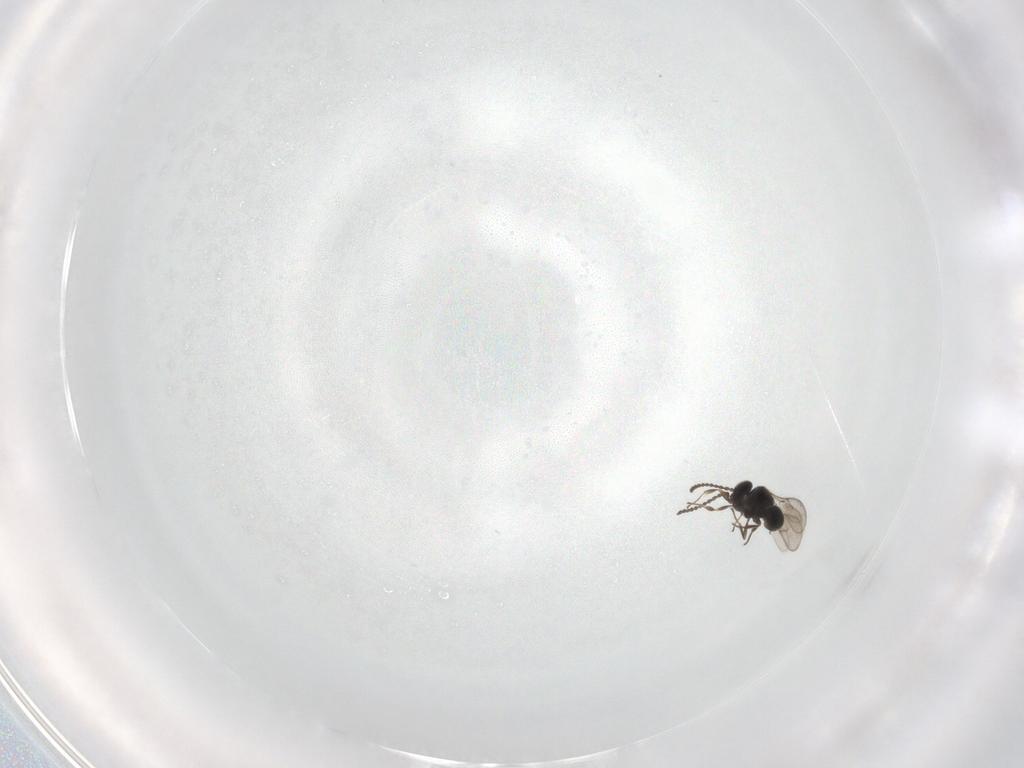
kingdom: Animalia
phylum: Arthropoda
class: Insecta
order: Hymenoptera
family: Scelionidae
